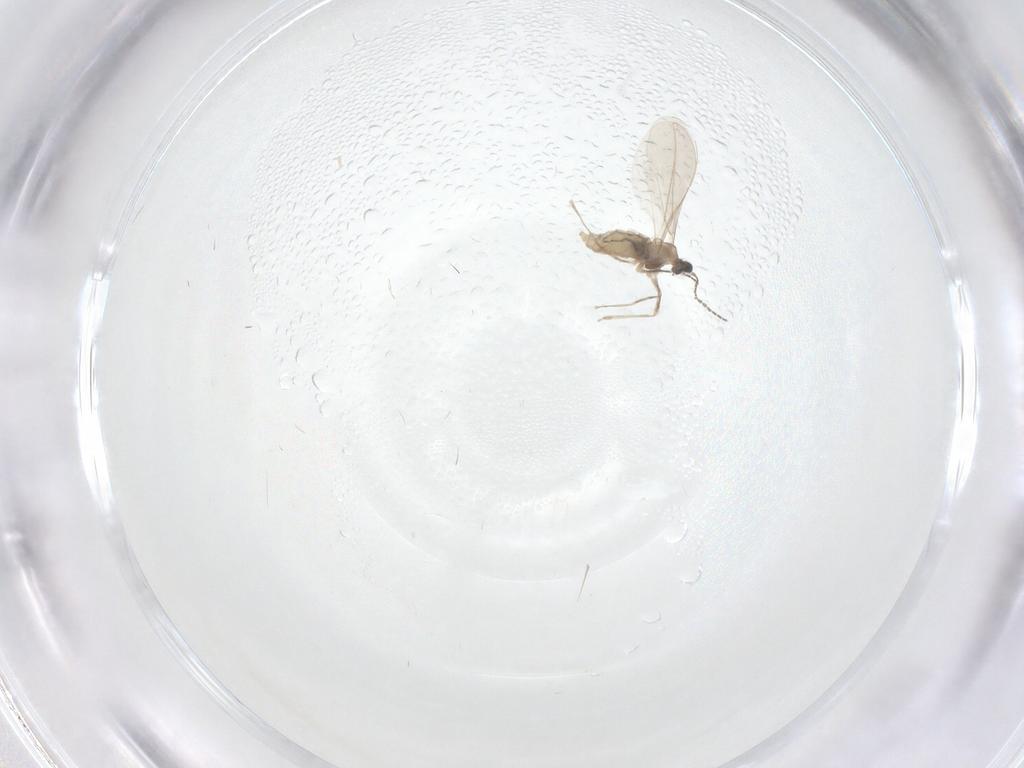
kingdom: Animalia
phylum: Arthropoda
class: Insecta
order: Diptera
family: Cecidomyiidae
